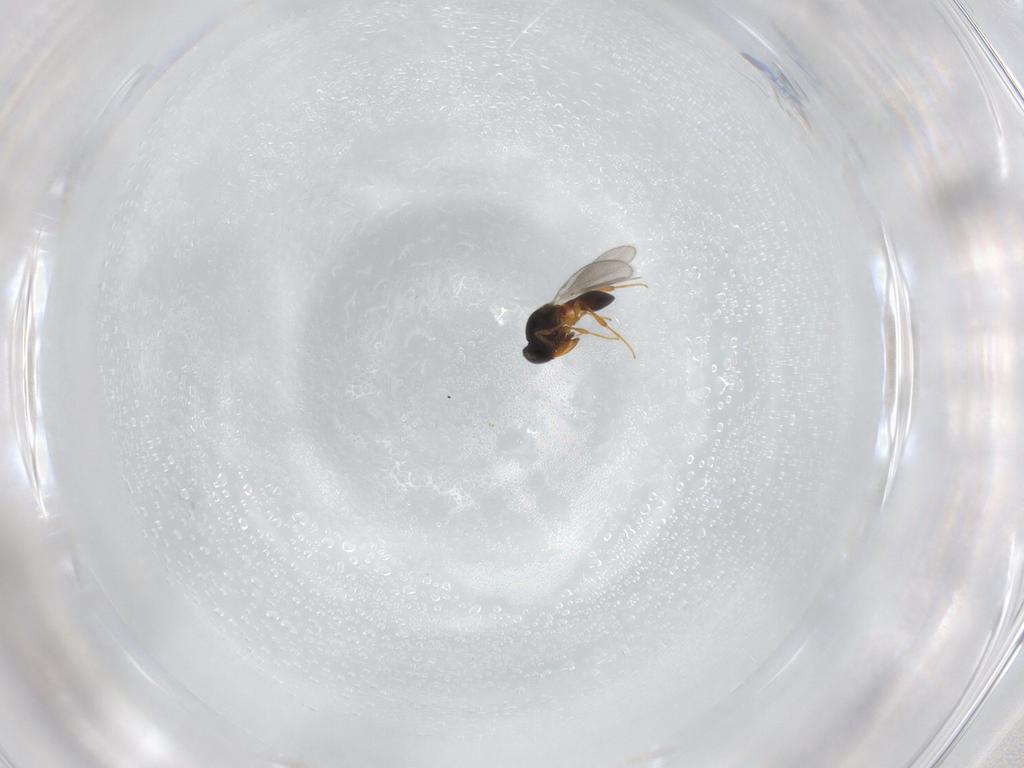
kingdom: Animalia
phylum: Arthropoda
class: Insecta
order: Hymenoptera
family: Platygastridae
